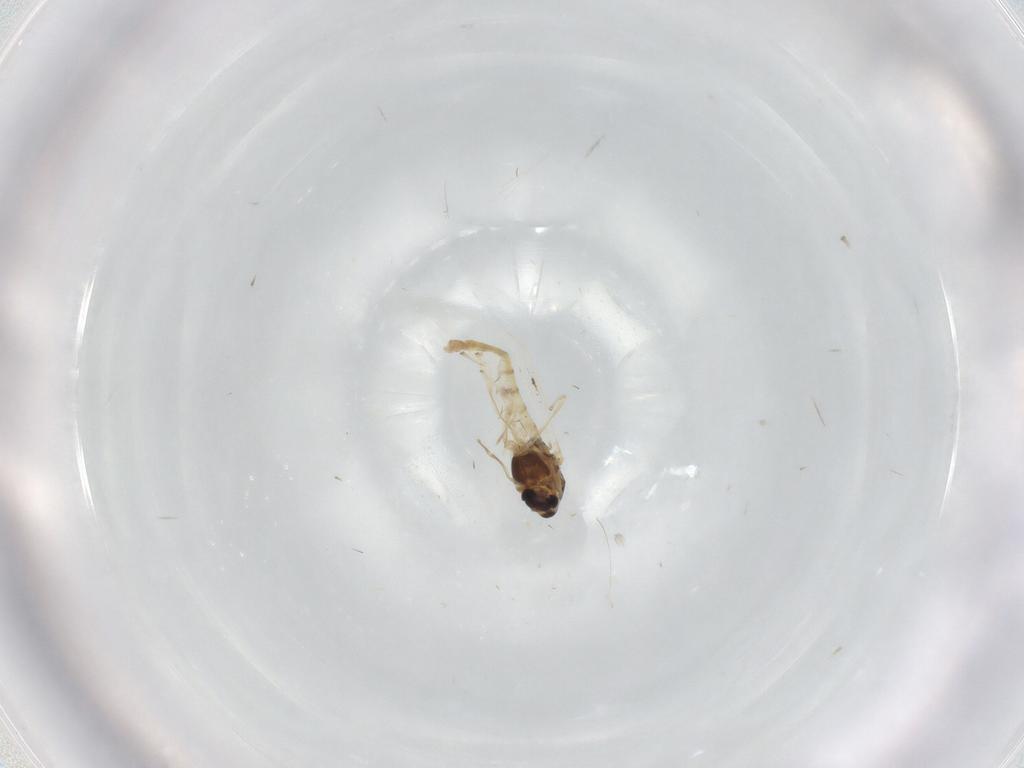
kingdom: Animalia
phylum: Arthropoda
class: Insecta
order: Diptera
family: Chironomidae
